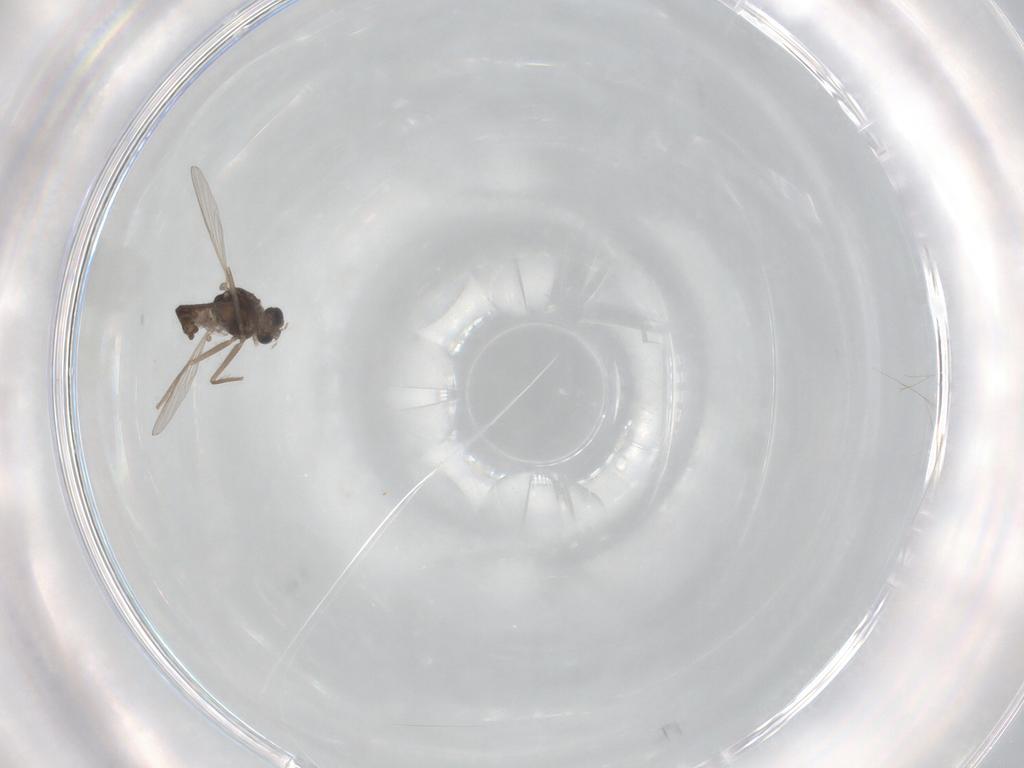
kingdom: Animalia
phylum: Arthropoda
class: Insecta
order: Diptera
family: Chironomidae
